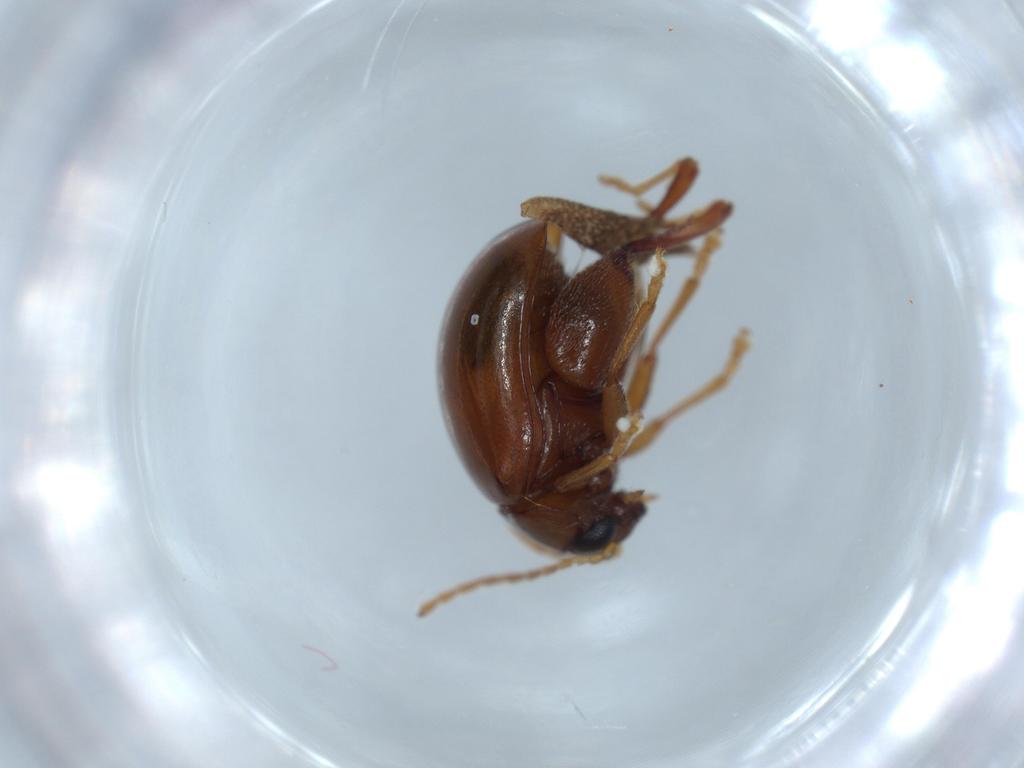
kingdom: Animalia
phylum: Arthropoda
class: Insecta
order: Coleoptera
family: Chrysomelidae
